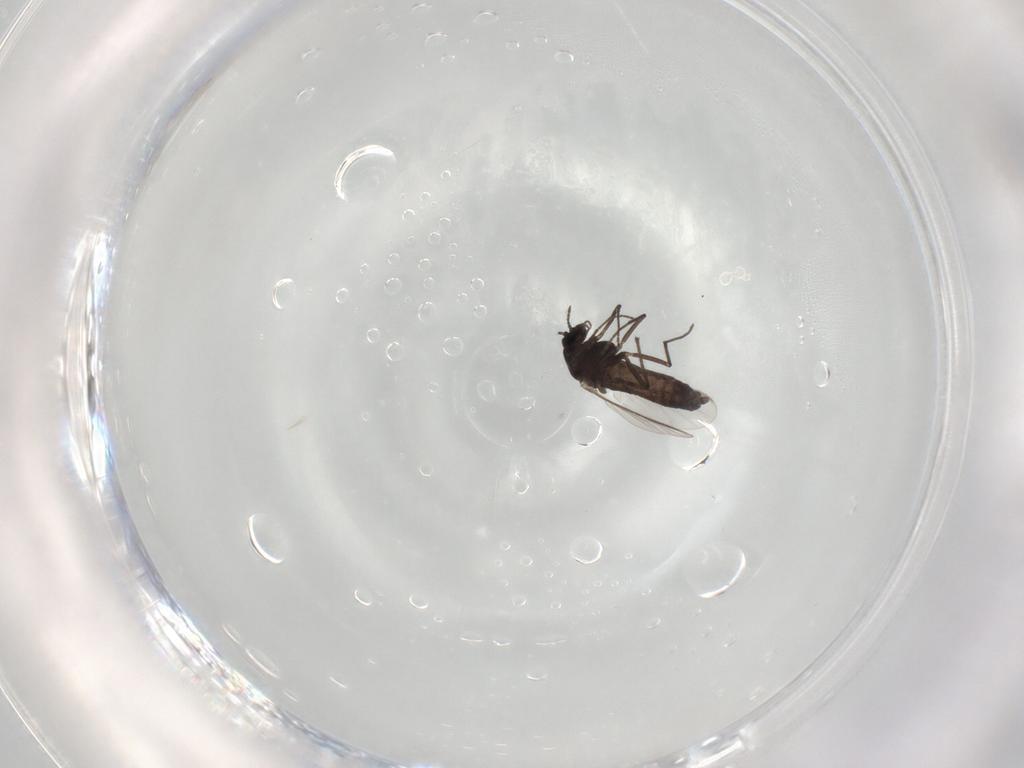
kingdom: Animalia
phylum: Arthropoda
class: Insecta
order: Diptera
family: Chironomidae
